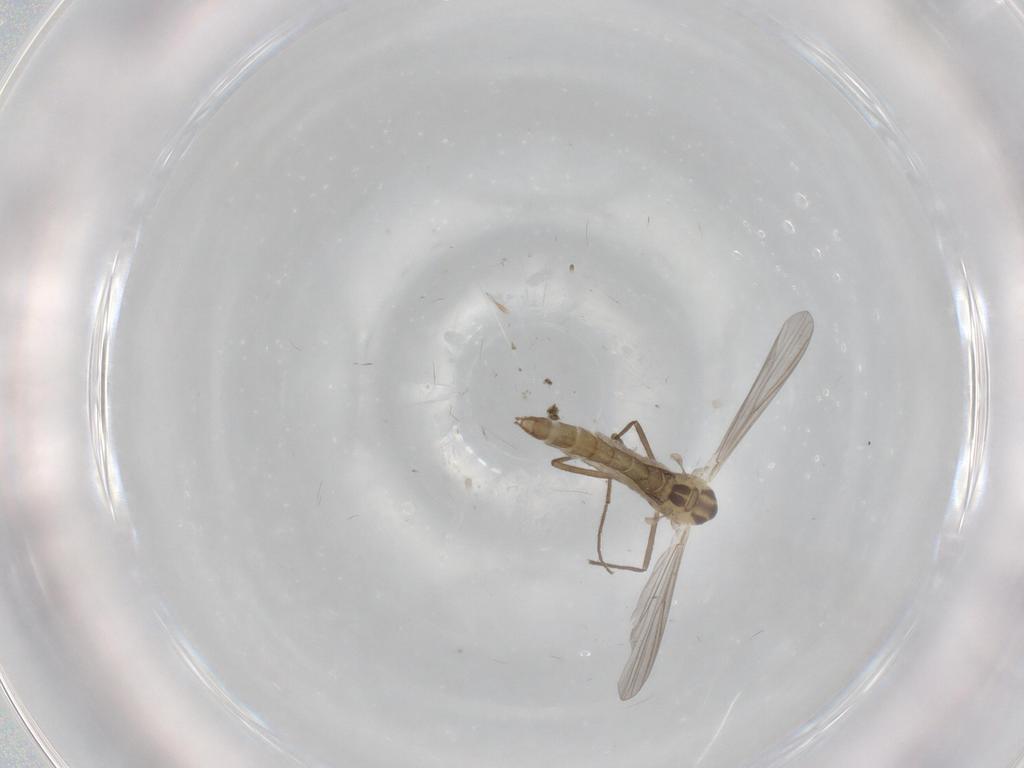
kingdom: Animalia
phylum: Arthropoda
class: Insecta
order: Diptera
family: Chironomidae
